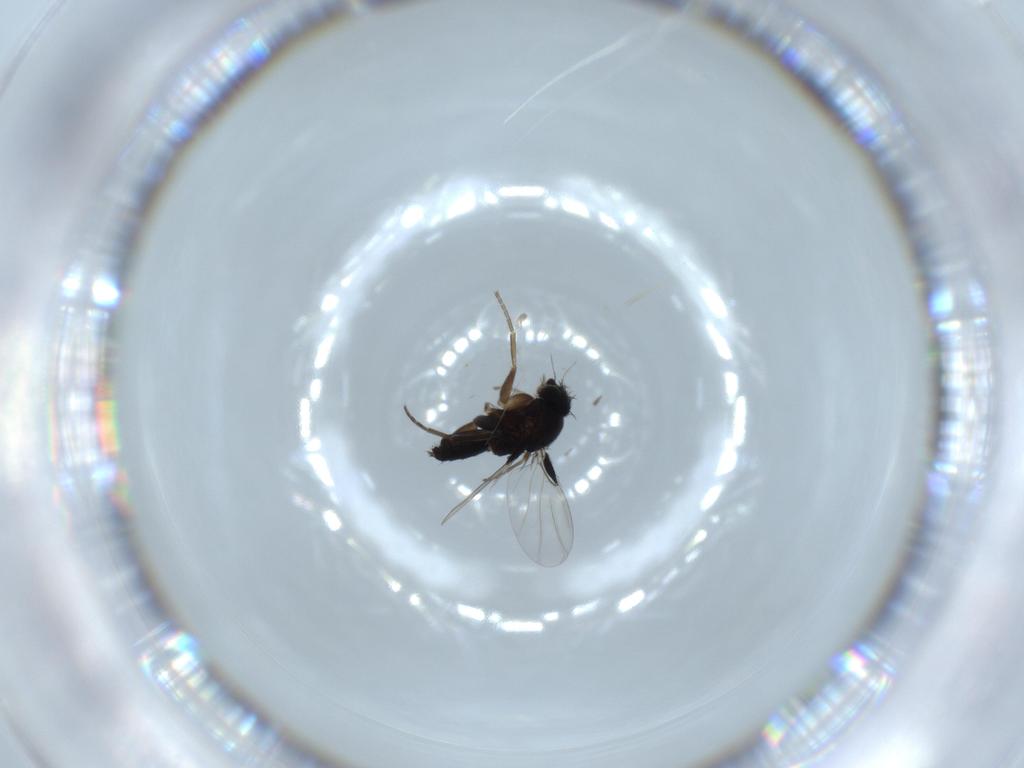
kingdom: Animalia
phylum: Arthropoda
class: Insecta
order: Diptera
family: Phoridae
